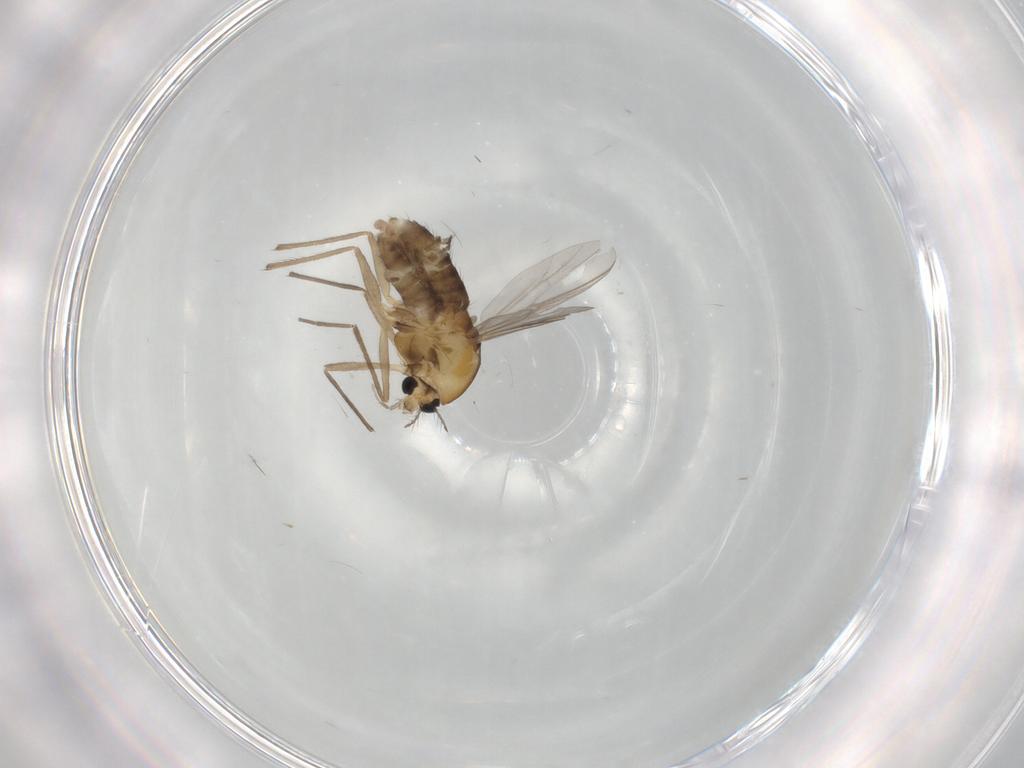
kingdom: Animalia
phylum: Arthropoda
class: Insecta
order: Diptera
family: Chironomidae
